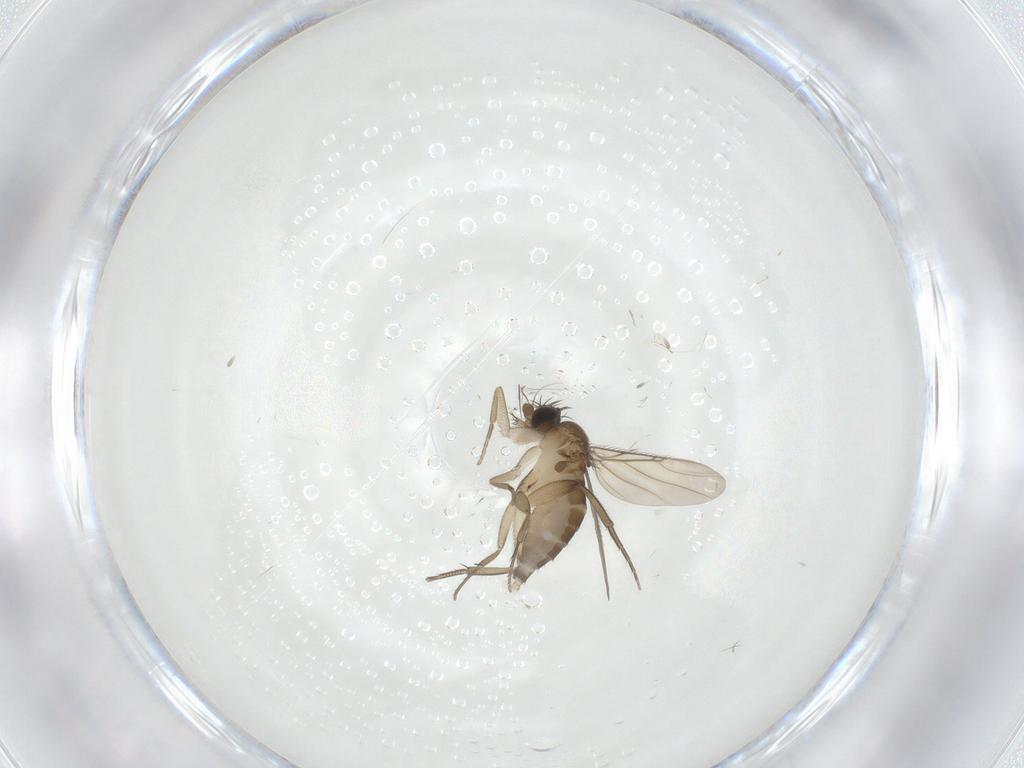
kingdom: Animalia
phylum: Arthropoda
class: Insecta
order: Diptera
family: Phoridae
